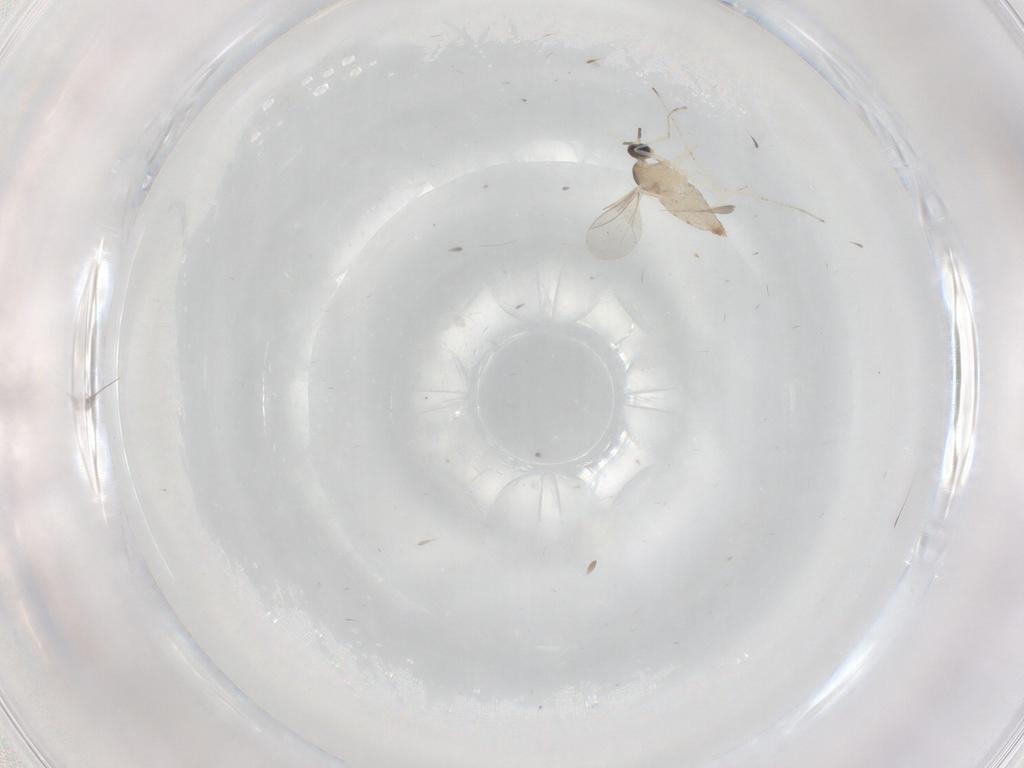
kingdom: Animalia
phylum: Arthropoda
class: Insecta
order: Diptera
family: Cecidomyiidae
